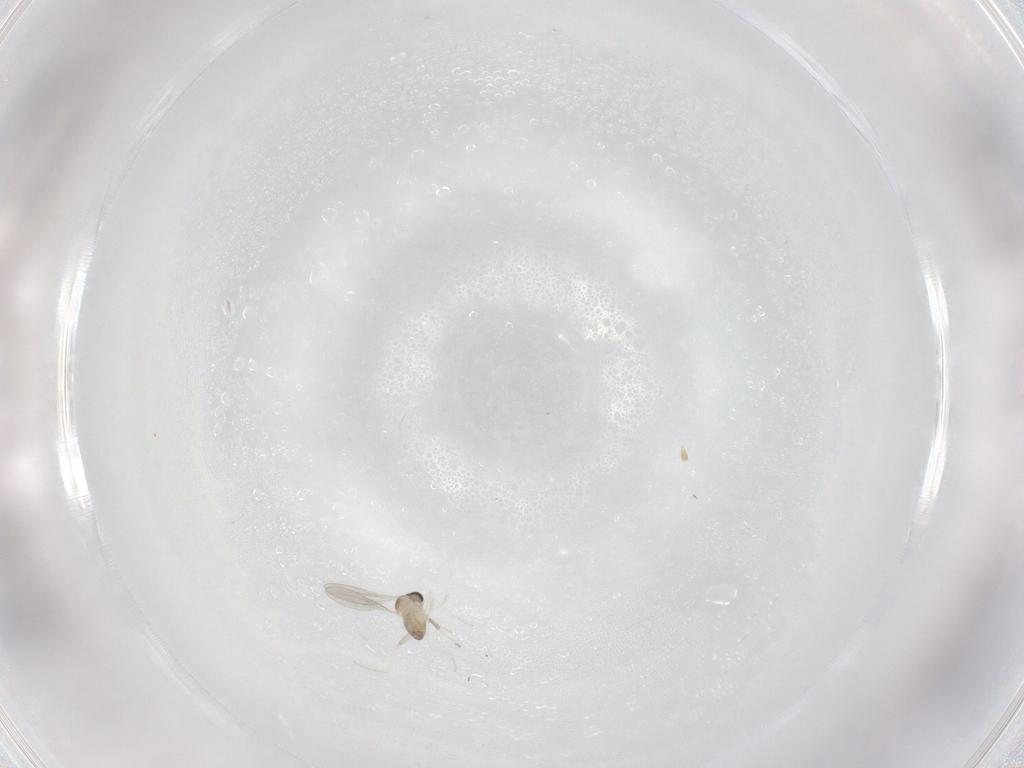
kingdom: Animalia
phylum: Arthropoda
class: Insecta
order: Diptera
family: Cecidomyiidae
